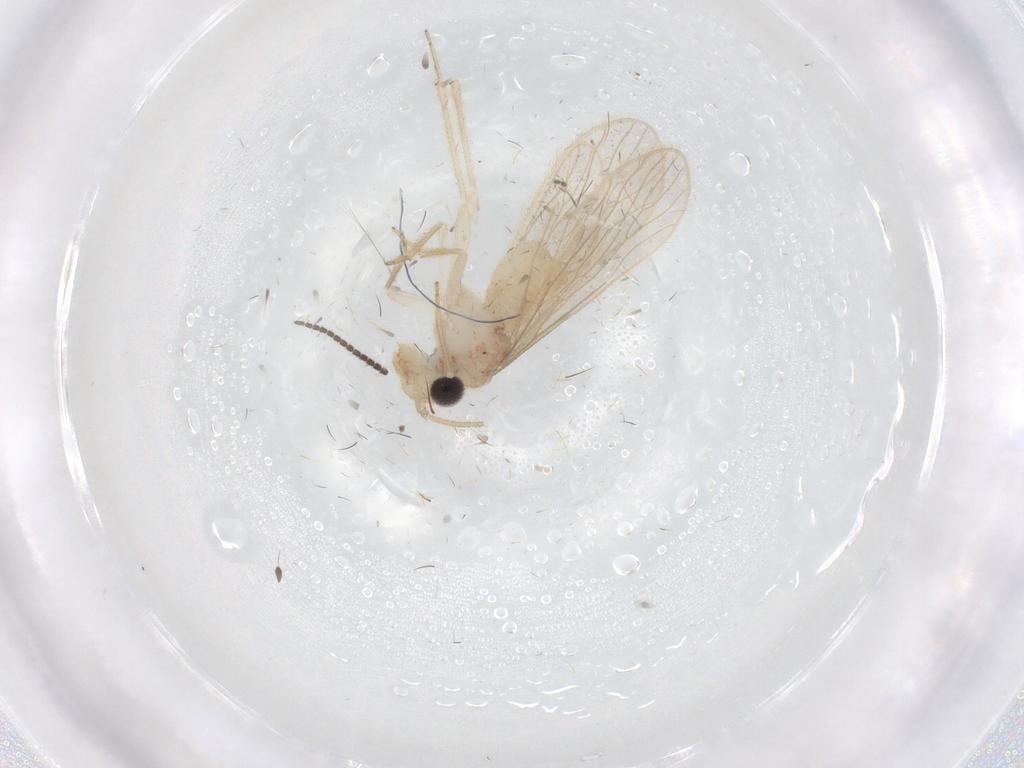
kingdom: Animalia
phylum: Arthropoda
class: Insecta
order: Psocodea
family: Cladiopsocidae
